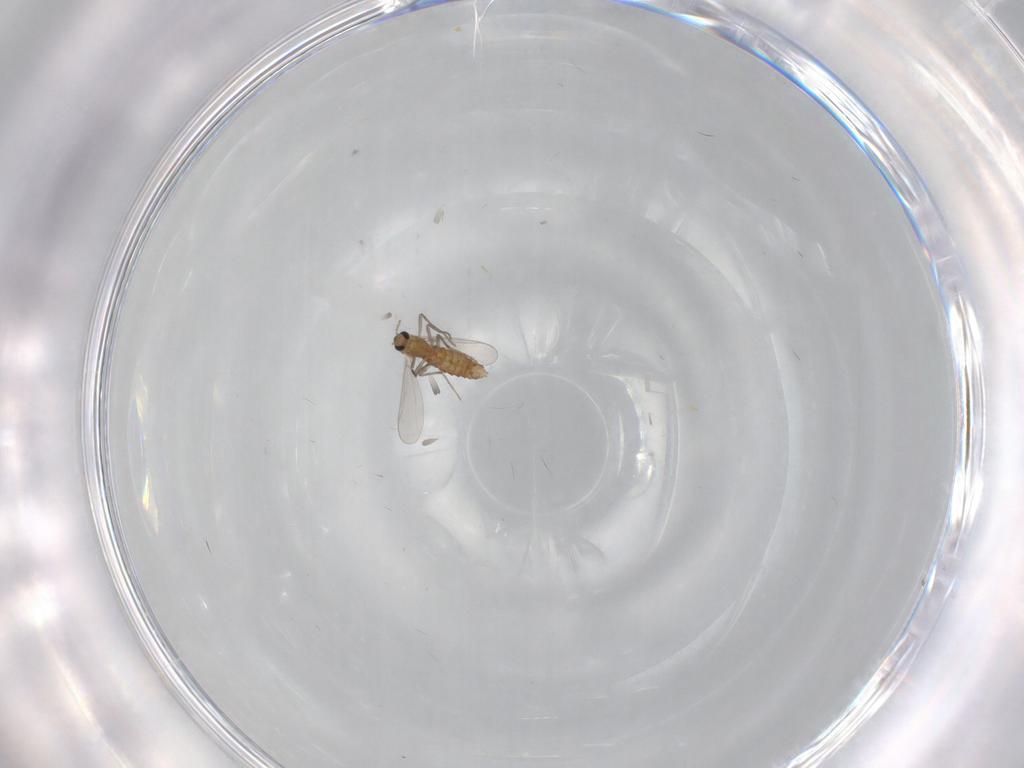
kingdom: Animalia
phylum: Arthropoda
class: Insecta
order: Diptera
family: Chironomidae
